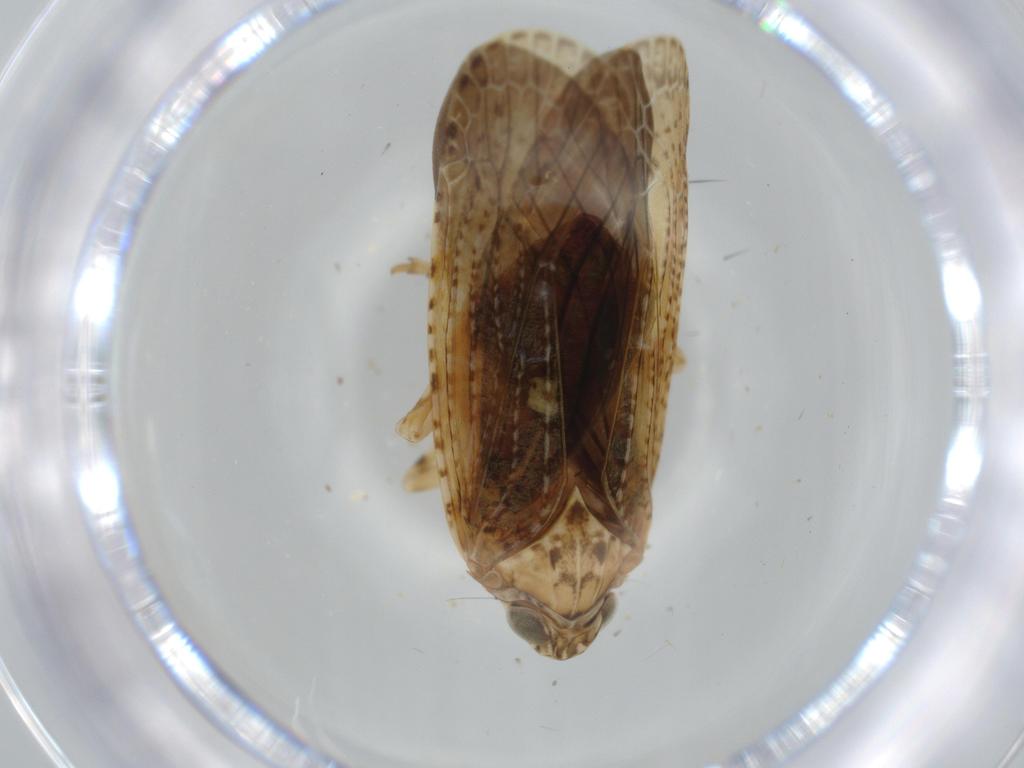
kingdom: Animalia
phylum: Arthropoda
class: Insecta
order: Hemiptera
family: Achilidae
